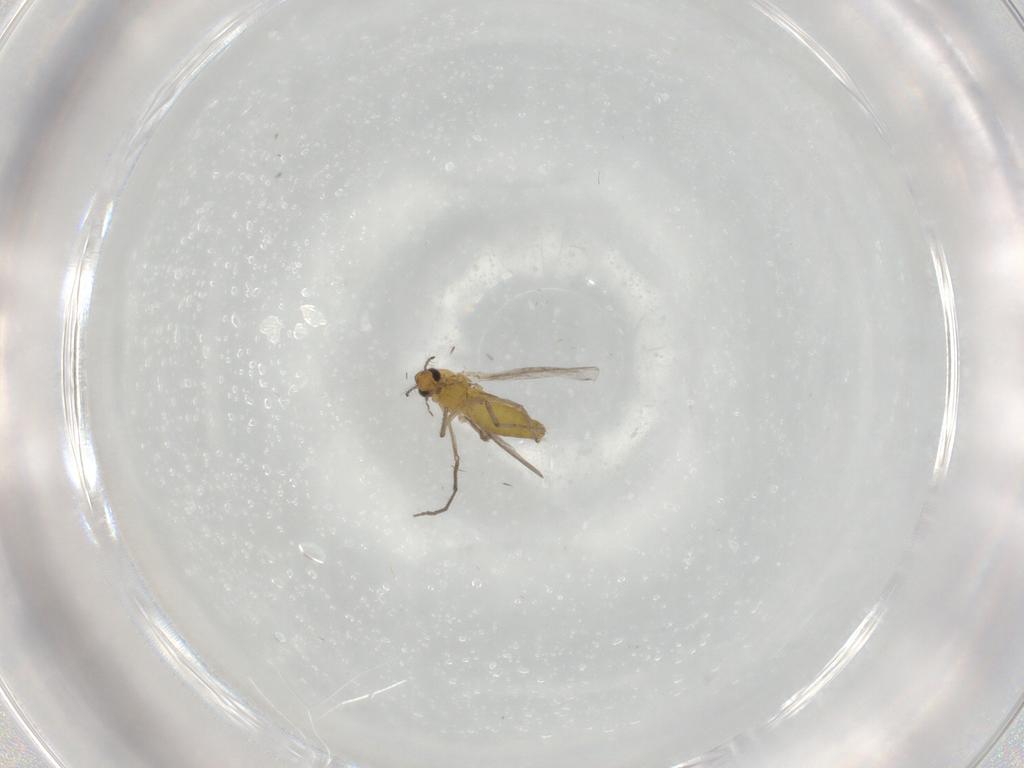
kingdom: Animalia
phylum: Arthropoda
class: Insecta
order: Diptera
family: Chironomidae
